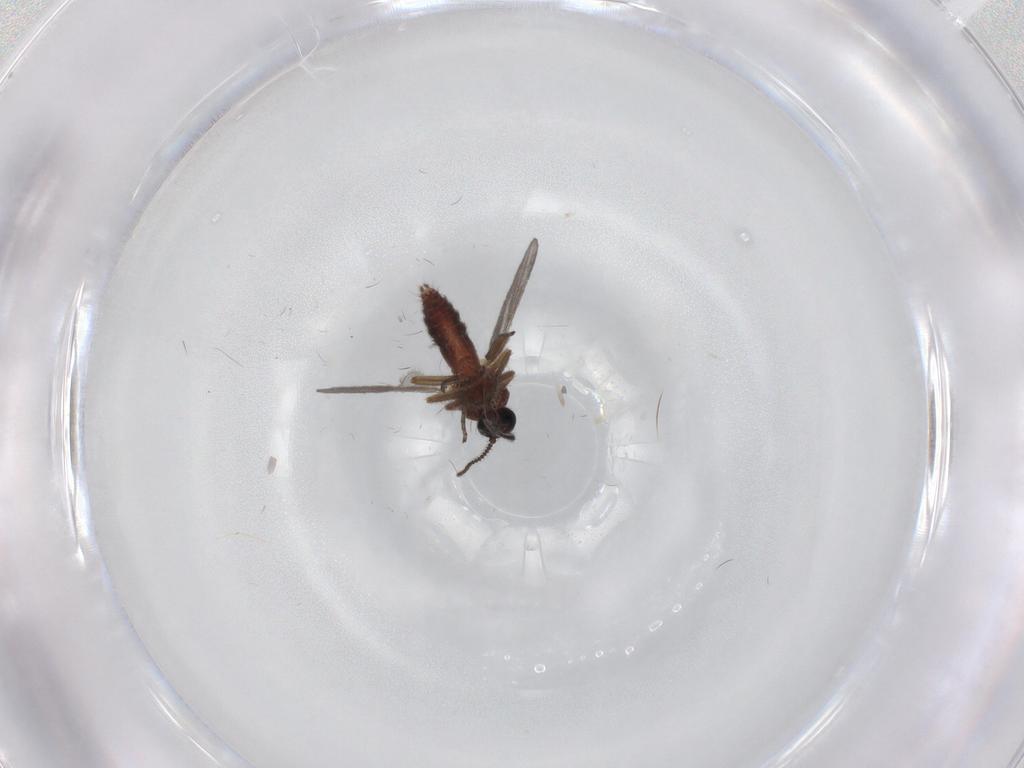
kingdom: Animalia
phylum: Arthropoda
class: Insecta
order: Diptera
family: Ceratopogonidae
